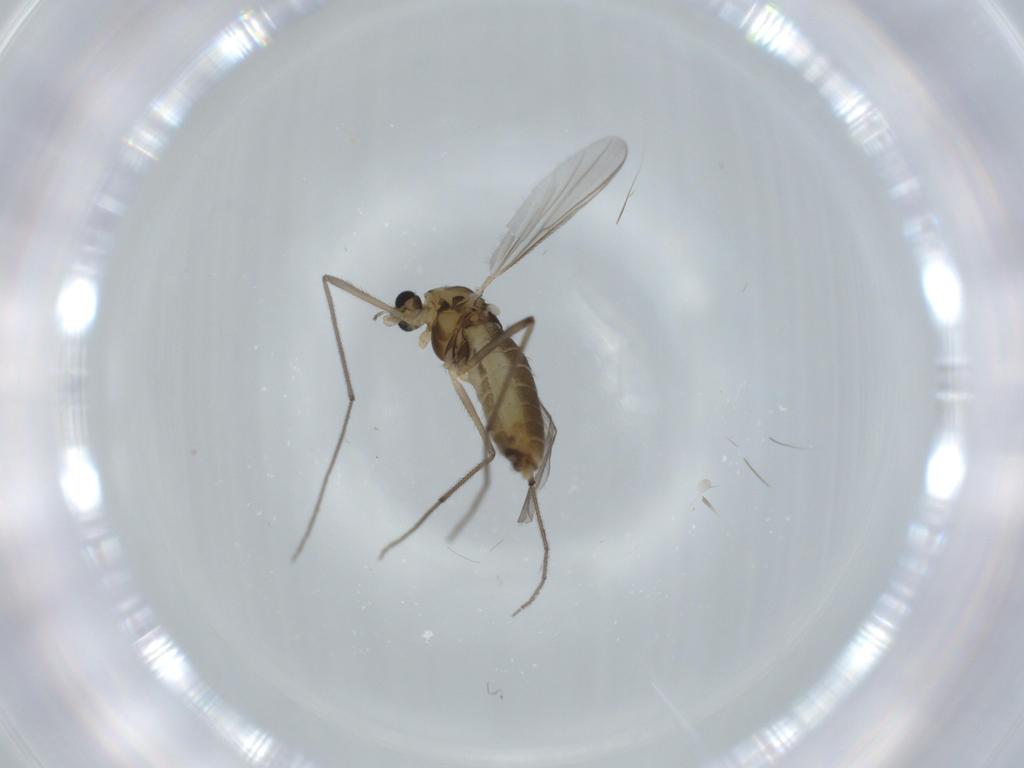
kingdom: Animalia
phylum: Arthropoda
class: Insecta
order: Diptera
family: Chironomidae
